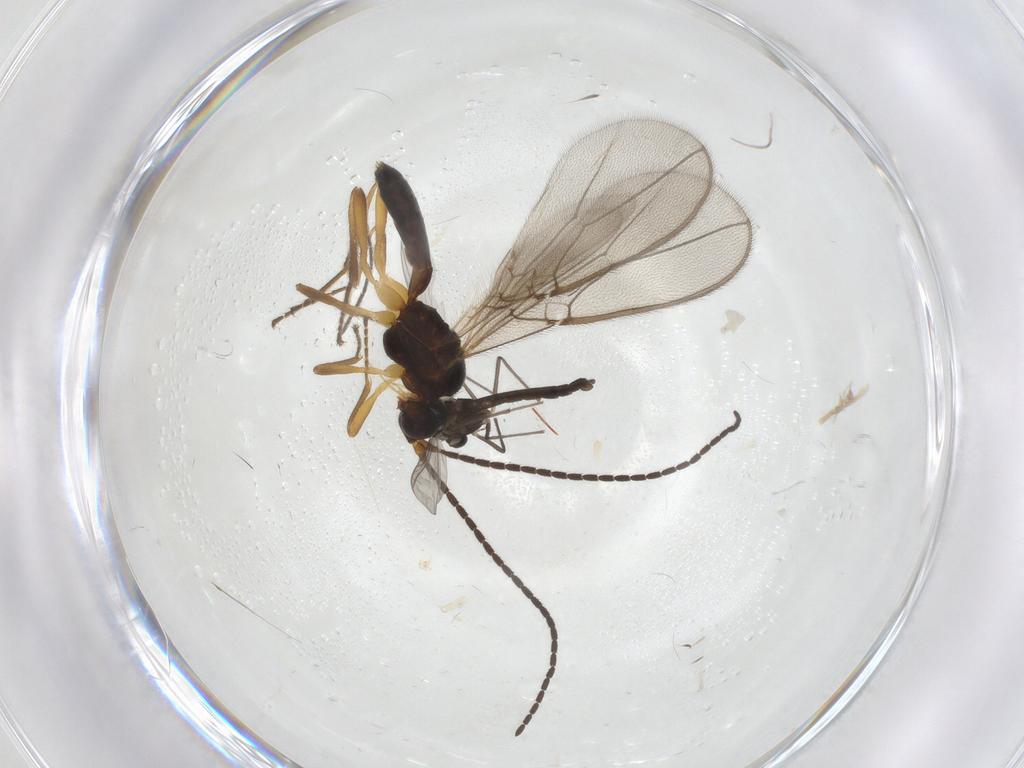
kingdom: Animalia
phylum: Arthropoda
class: Insecta
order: Diptera
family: Chironomidae
